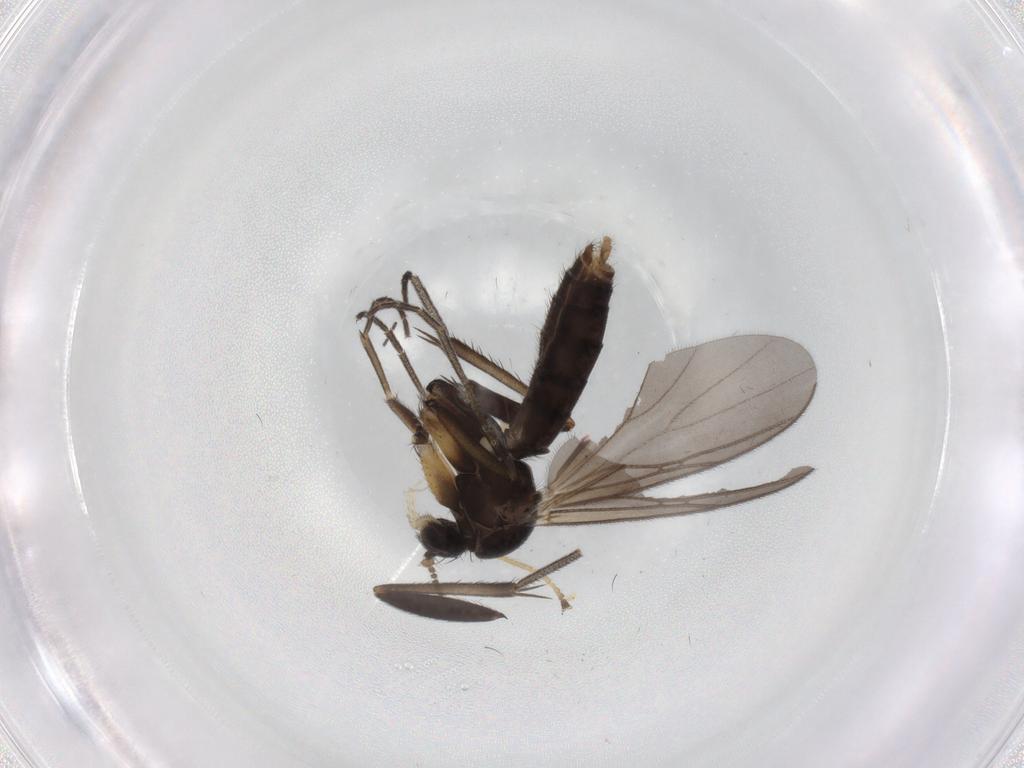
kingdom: Animalia
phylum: Arthropoda
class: Insecta
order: Diptera
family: Mycetophilidae
